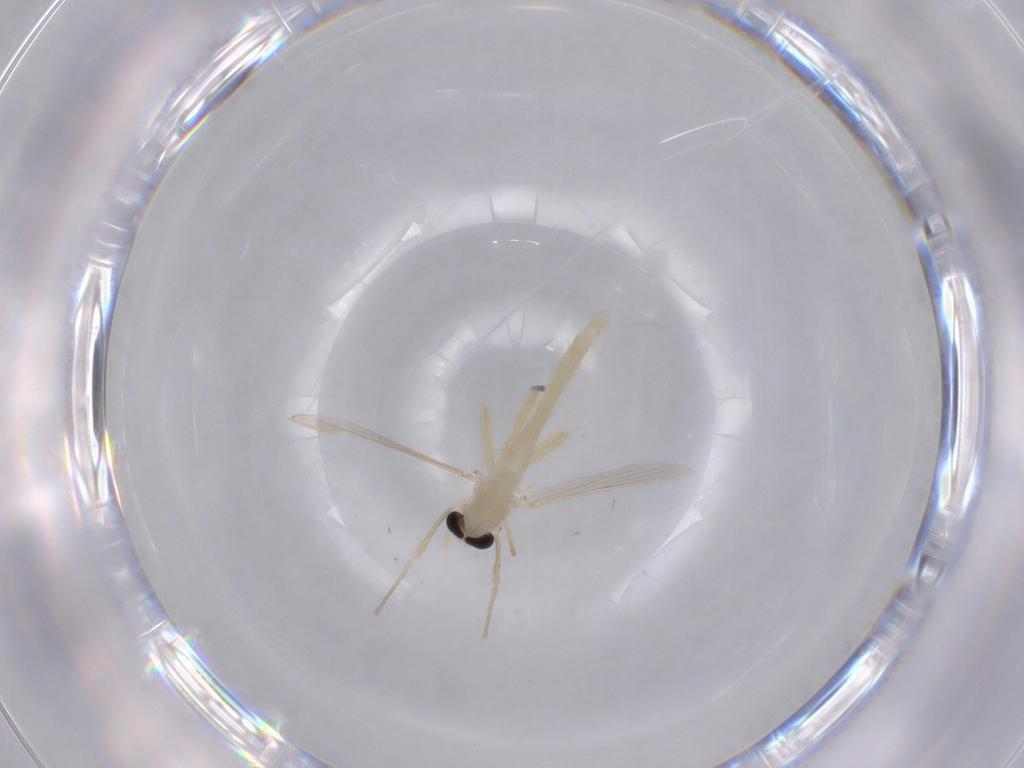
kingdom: Animalia
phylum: Arthropoda
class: Insecta
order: Diptera
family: Chironomidae
